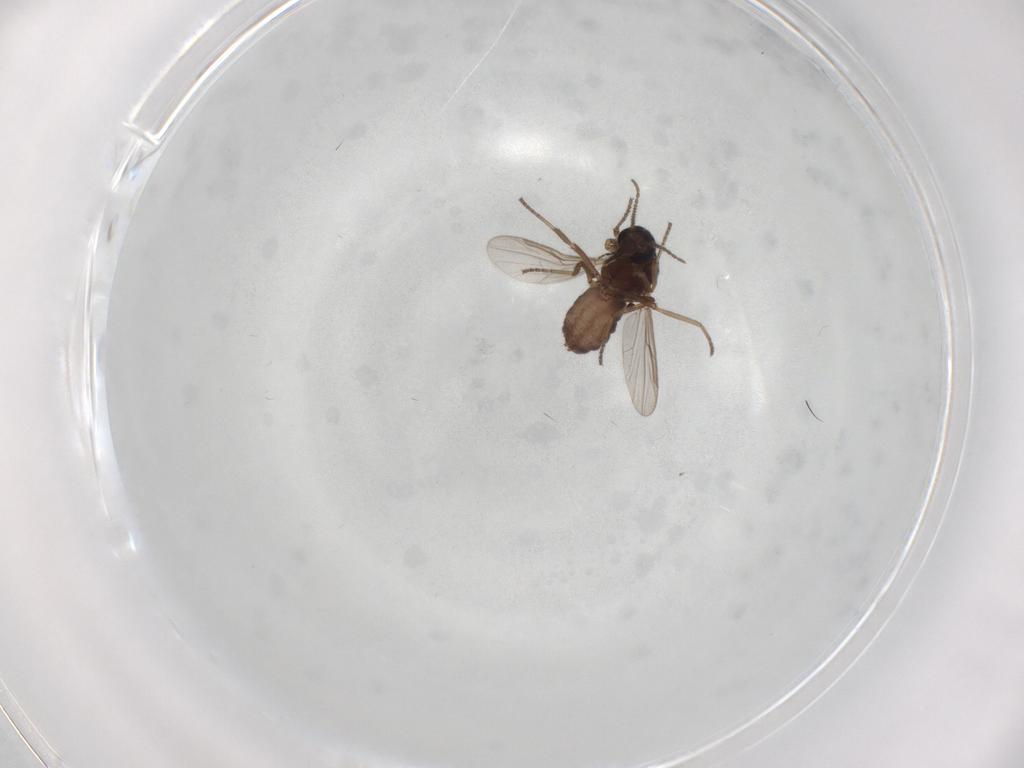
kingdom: Animalia
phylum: Arthropoda
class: Insecta
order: Diptera
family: Ceratopogonidae
